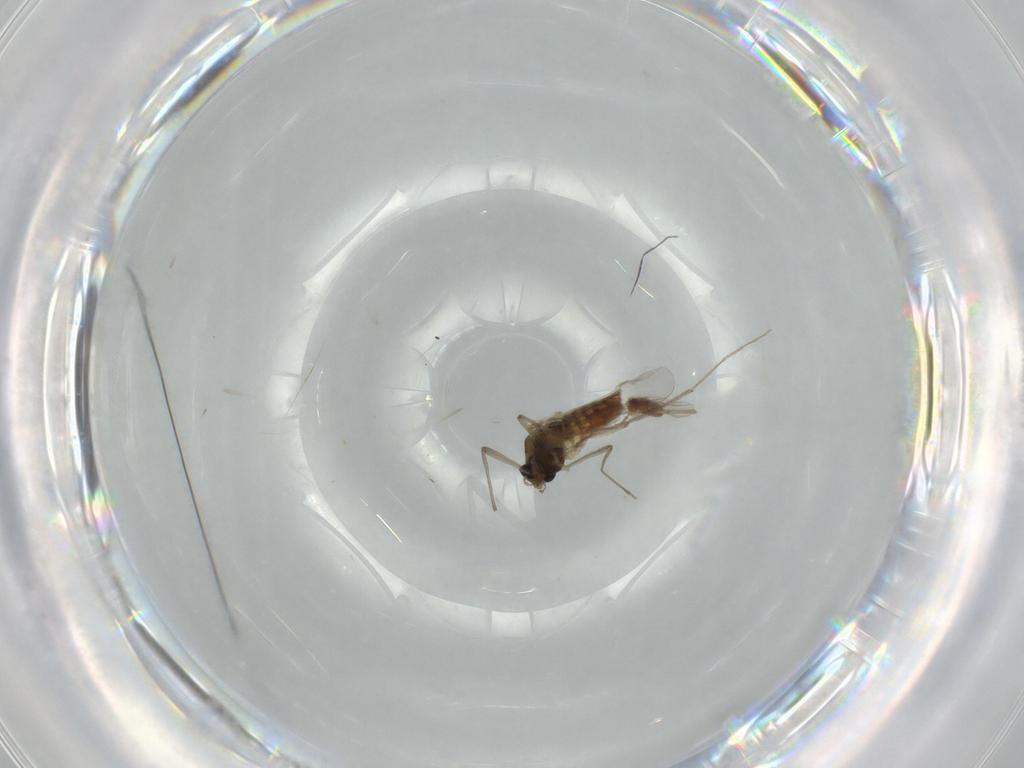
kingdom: Animalia
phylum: Arthropoda
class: Insecta
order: Diptera
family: Chironomidae
